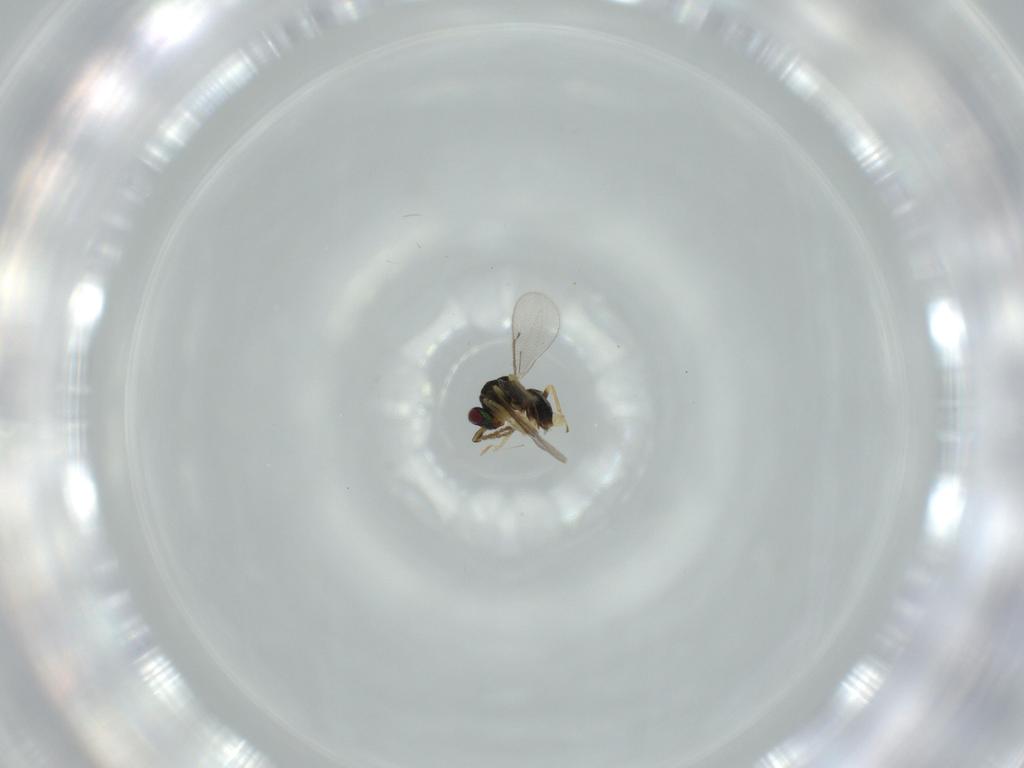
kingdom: Animalia
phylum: Arthropoda
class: Insecta
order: Hymenoptera
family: Eulophidae
